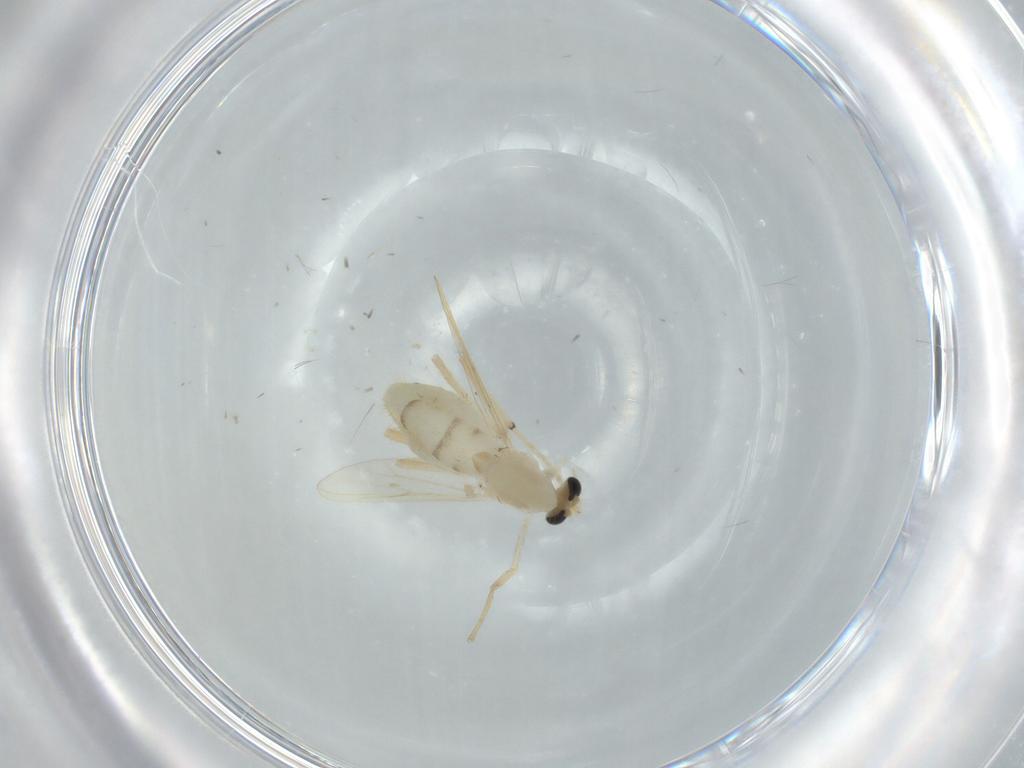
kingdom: Animalia
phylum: Arthropoda
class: Insecta
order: Diptera
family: Chironomidae
